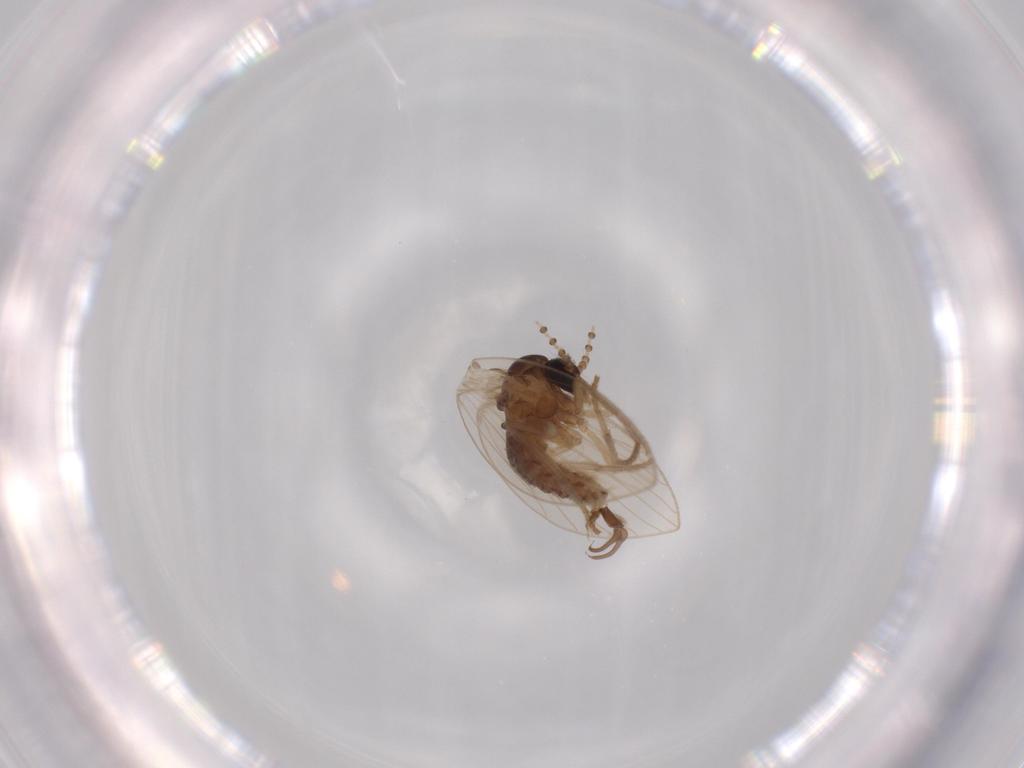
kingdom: Animalia
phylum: Arthropoda
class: Insecta
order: Diptera
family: Psychodidae
